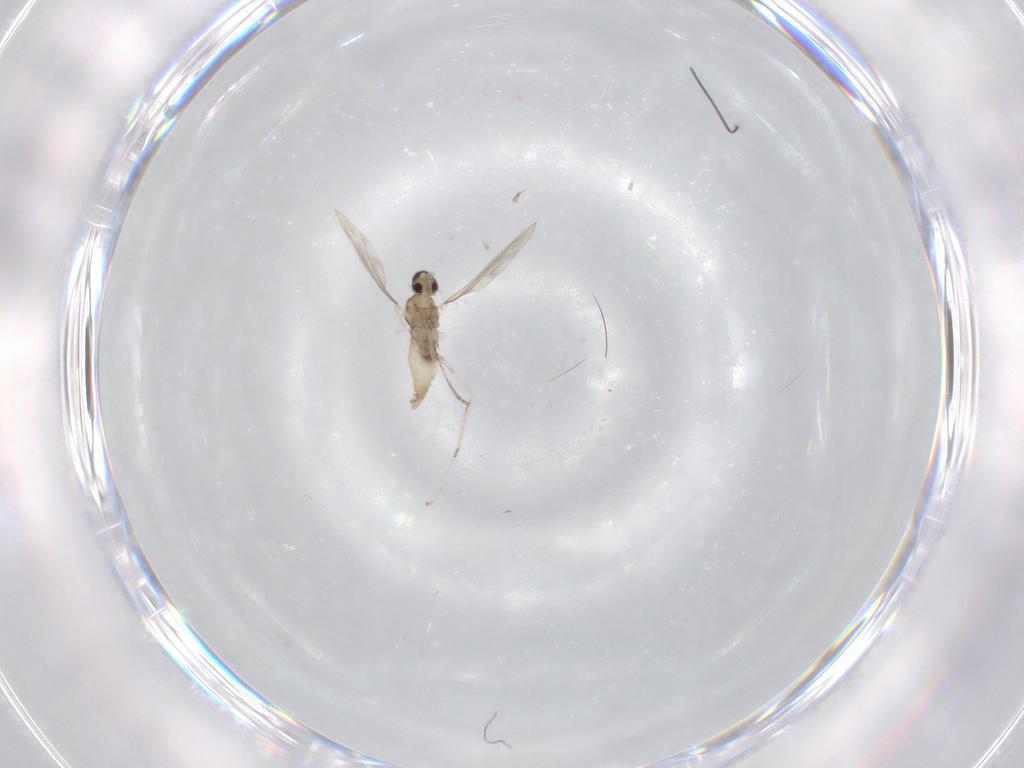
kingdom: Animalia
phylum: Arthropoda
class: Insecta
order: Diptera
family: Cecidomyiidae
